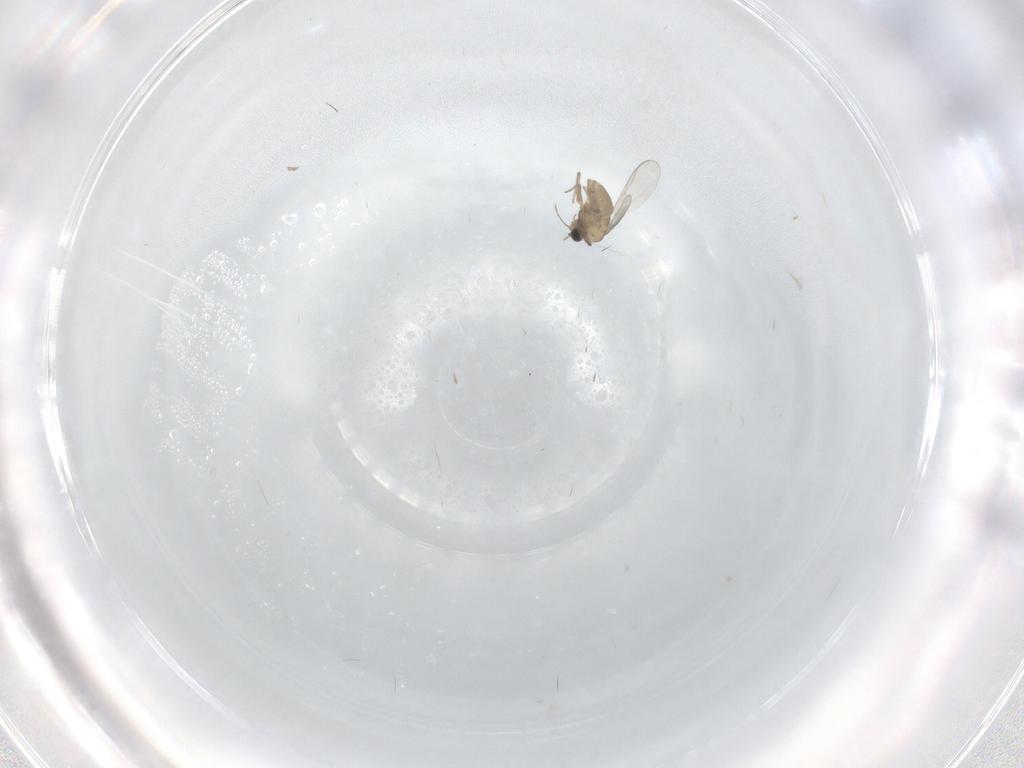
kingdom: Animalia
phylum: Arthropoda
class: Insecta
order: Diptera
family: Chironomidae
